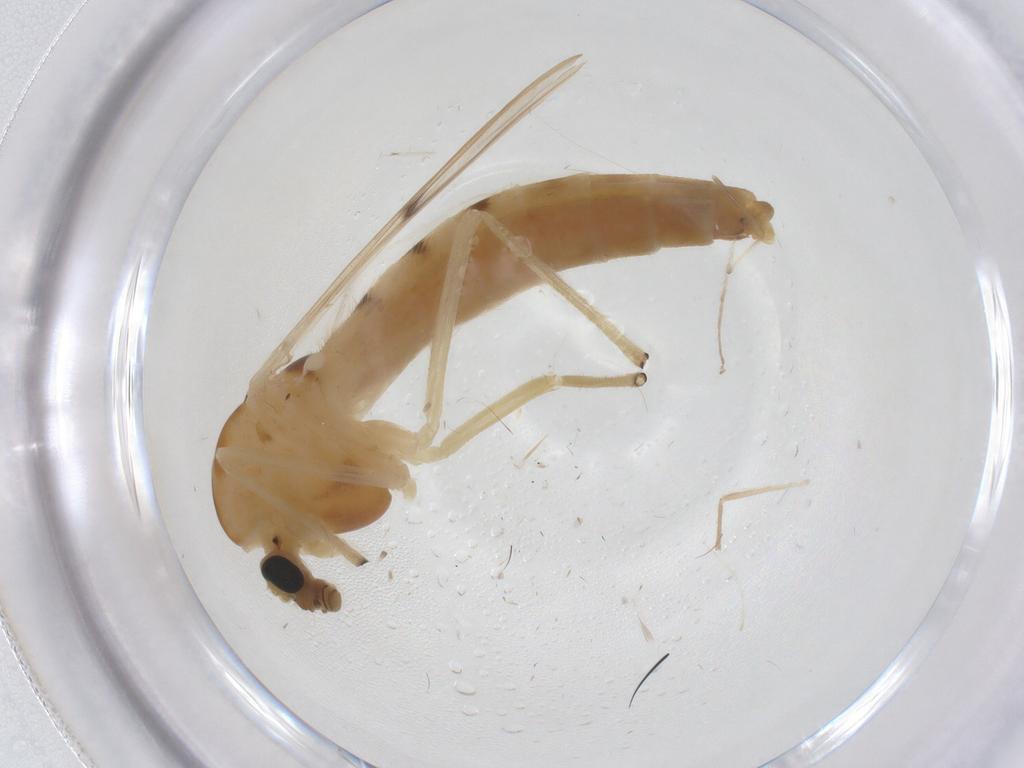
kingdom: Animalia
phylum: Arthropoda
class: Insecta
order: Diptera
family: Chironomidae
